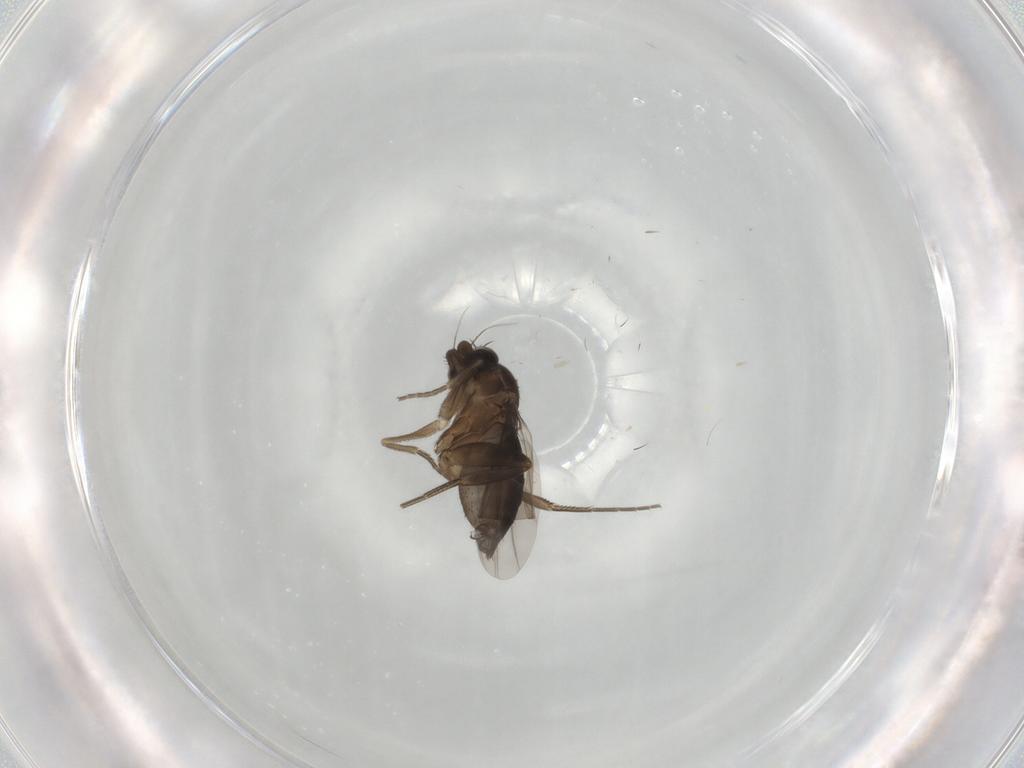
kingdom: Animalia
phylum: Arthropoda
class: Insecta
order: Diptera
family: Phoridae
